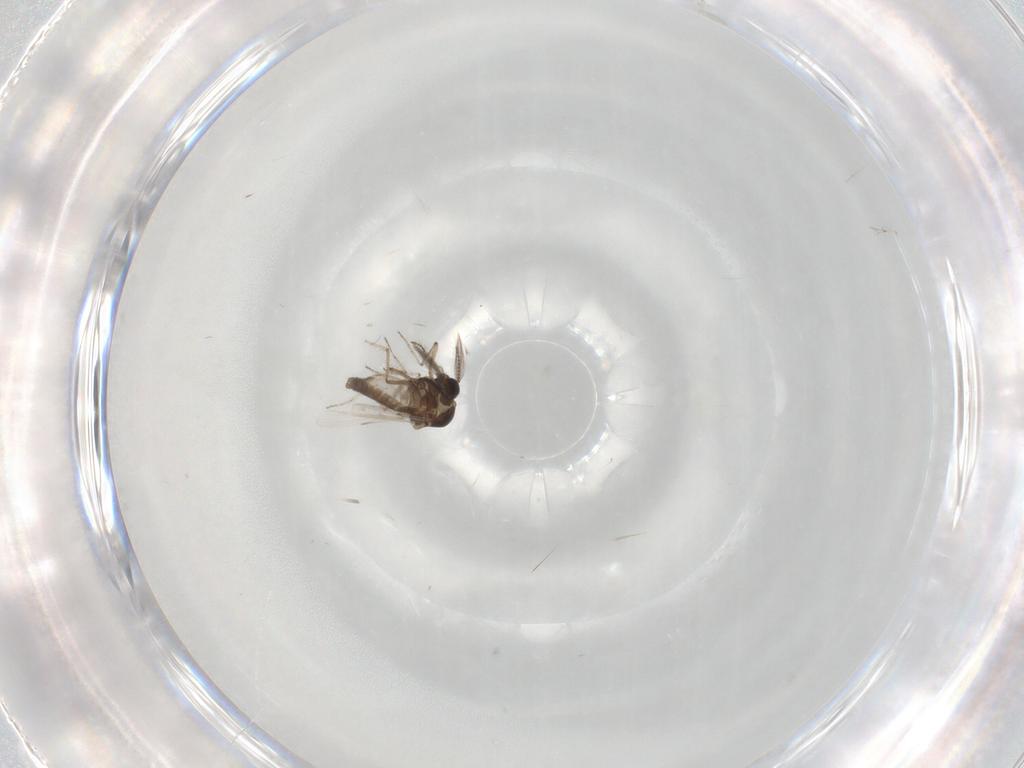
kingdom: Animalia
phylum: Arthropoda
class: Insecta
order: Diptera
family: Ceratopogonidae
